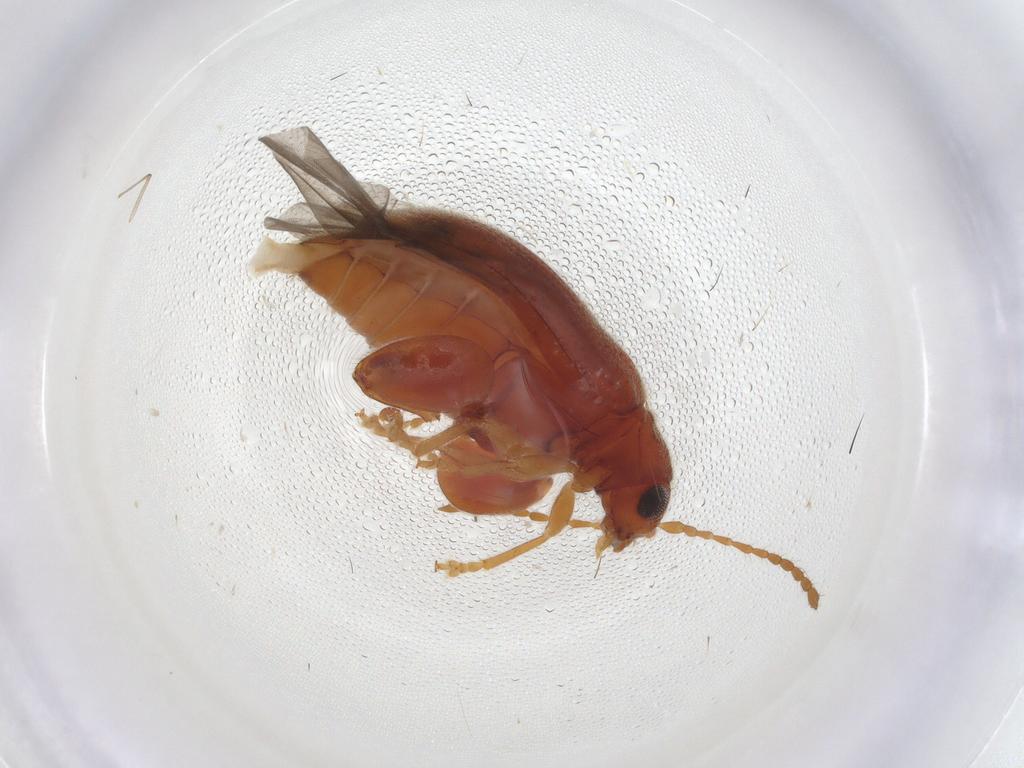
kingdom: Animalia
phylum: Arthropoda
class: Insecta
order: Coleoptera
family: Chrysomelidae
